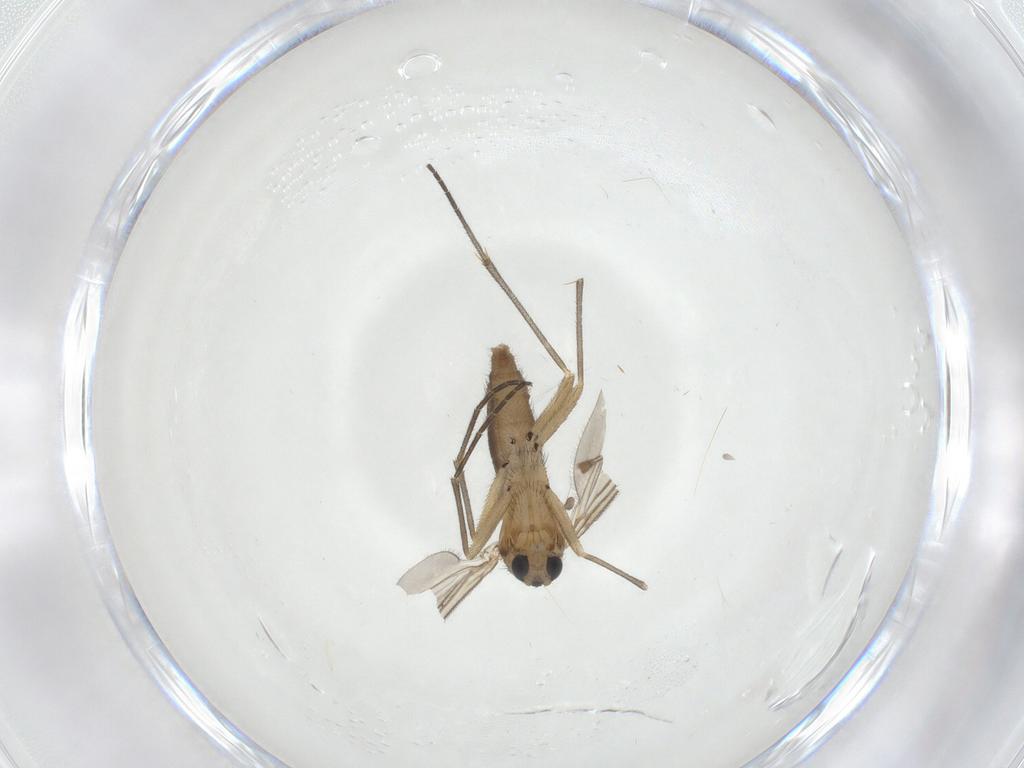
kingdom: Animalia
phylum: Arthropoda
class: Insecta
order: Diptera
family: Sciaridae
